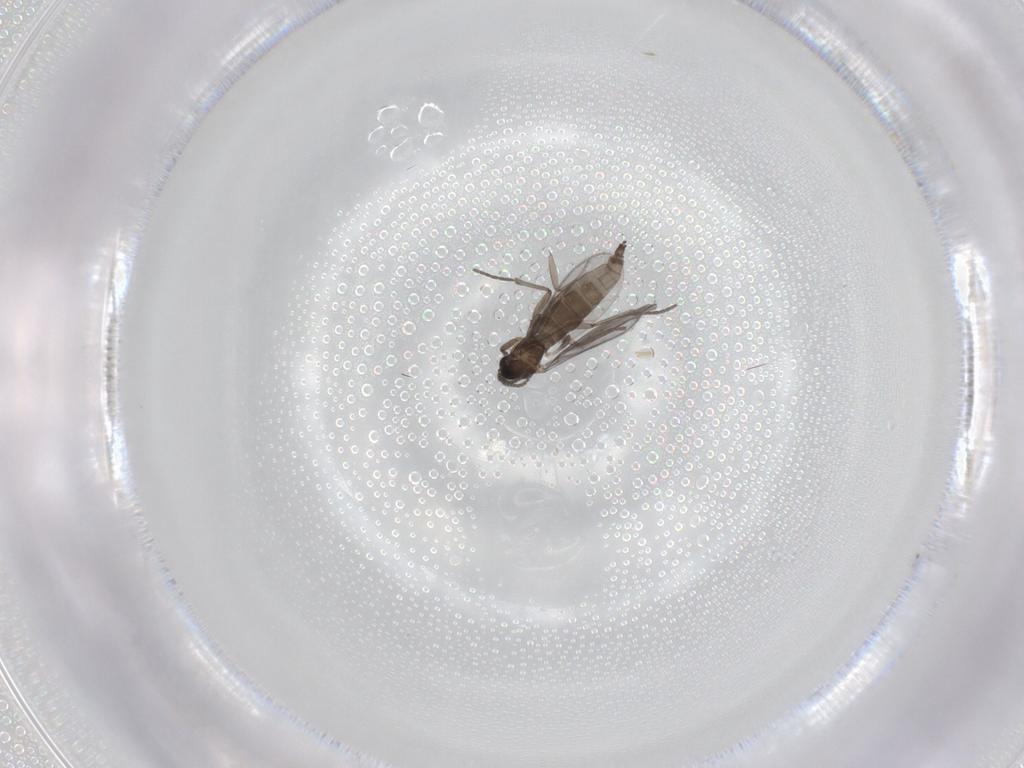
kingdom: Animalia
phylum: Arthropoda
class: Insecta
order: Diptera
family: Sciaridae
